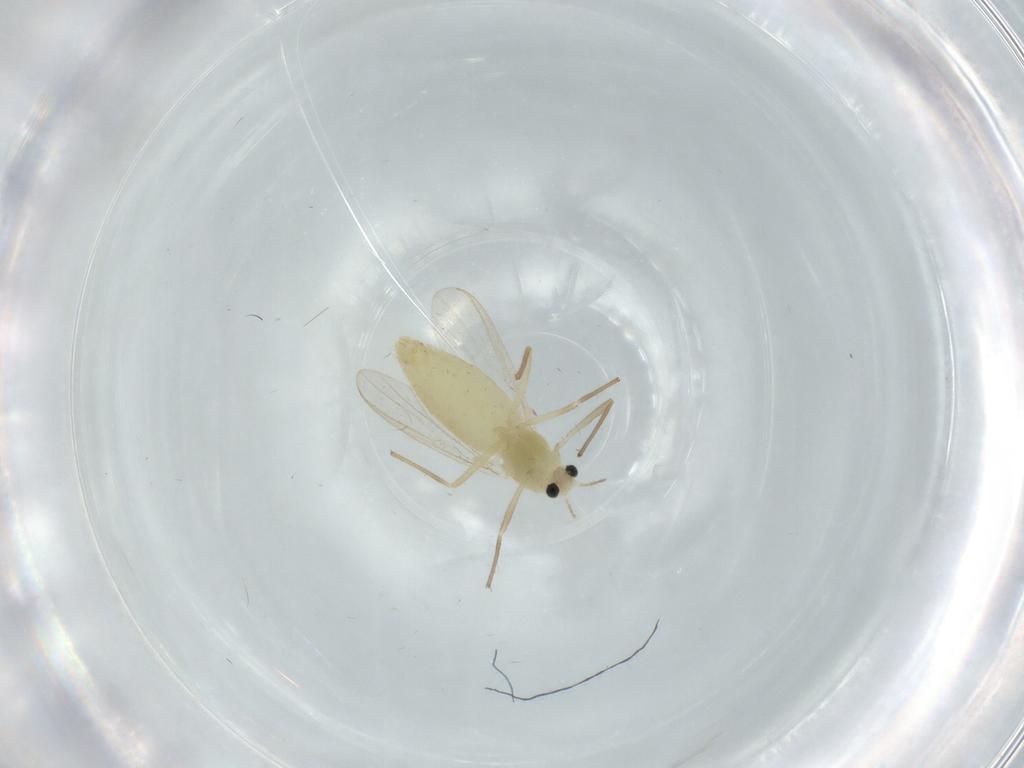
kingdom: Animalia
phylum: Arthropoda
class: Insecta
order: Diptera
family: Chironomidae
